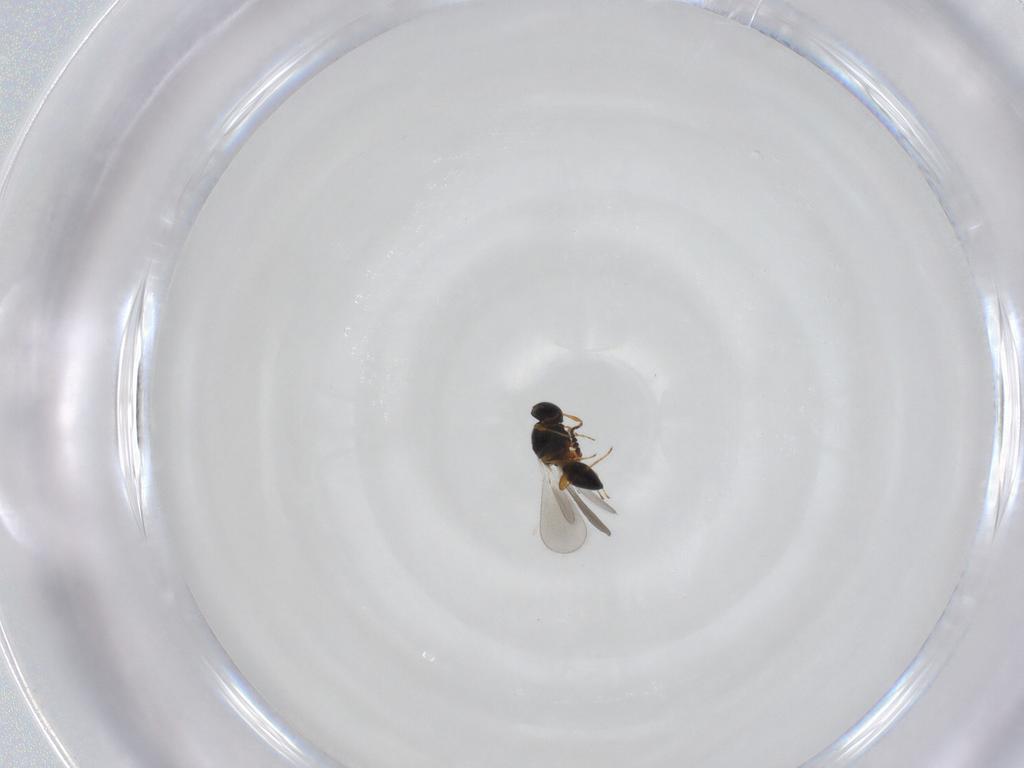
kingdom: Animalia
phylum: Arthropoda
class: Insecta
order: Hymenoptera
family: Platygastridae
